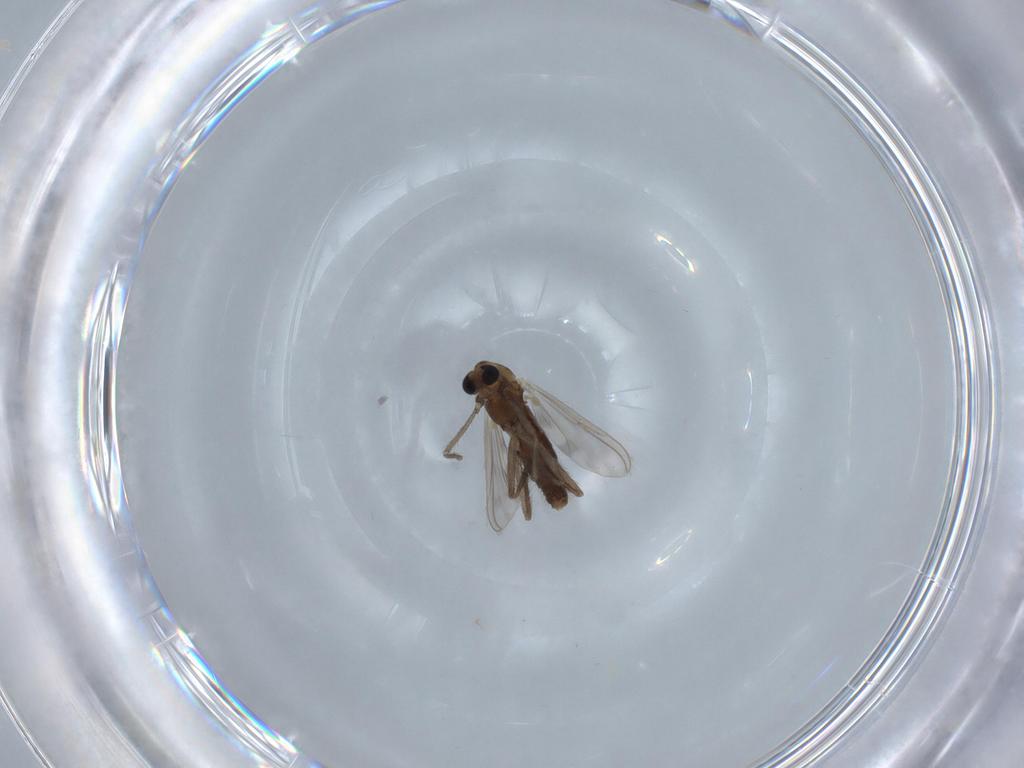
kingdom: Animalia
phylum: Arthropoda
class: Insecta
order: Diptera
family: Chironomidae
